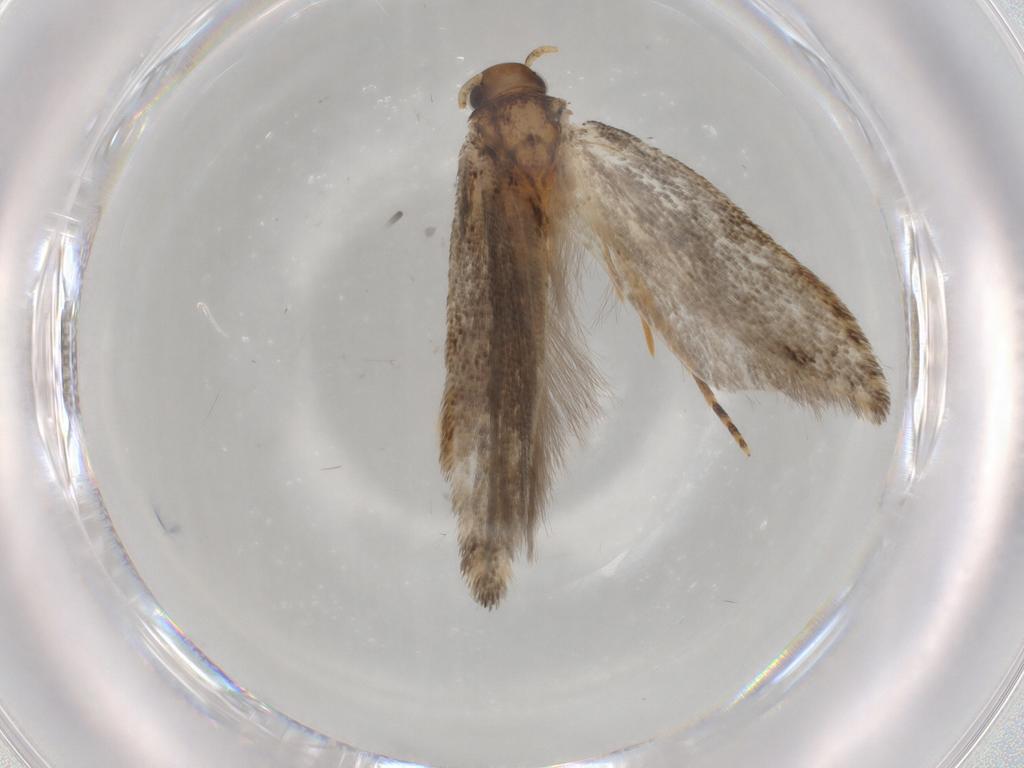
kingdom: Animalia
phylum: Arthropoda
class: Insecta
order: Lepidoptera
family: Gelechiidae
